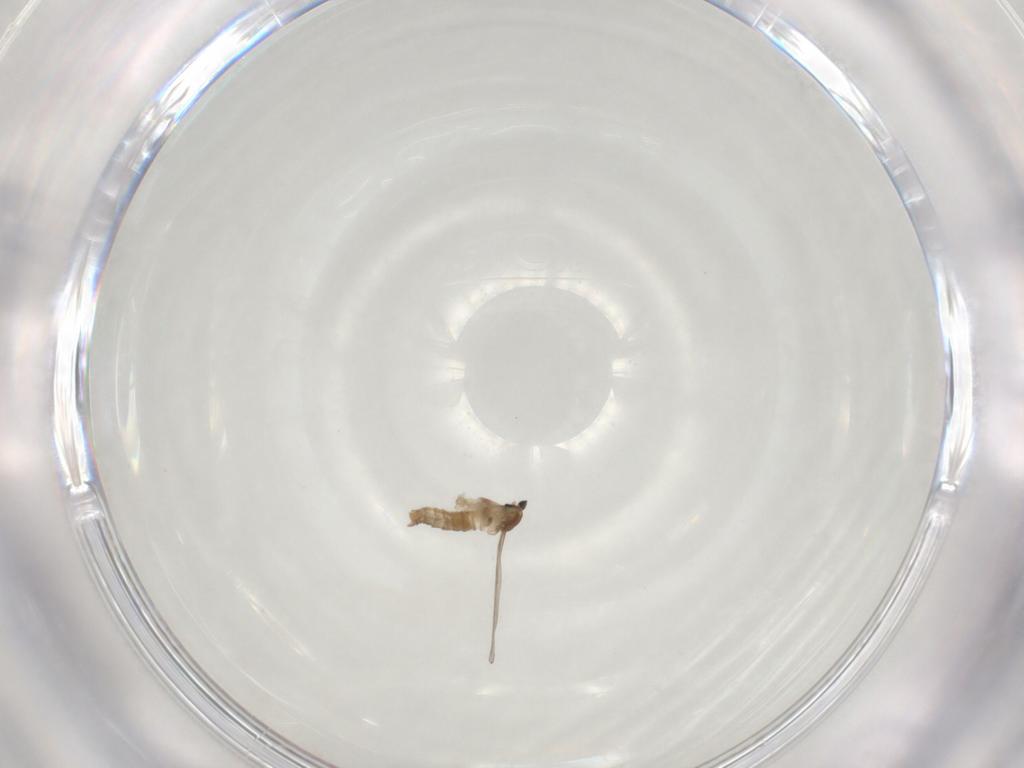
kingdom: Animalia
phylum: Arthropoda
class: Insecta
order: Diptera
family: Cecidomyiidae
